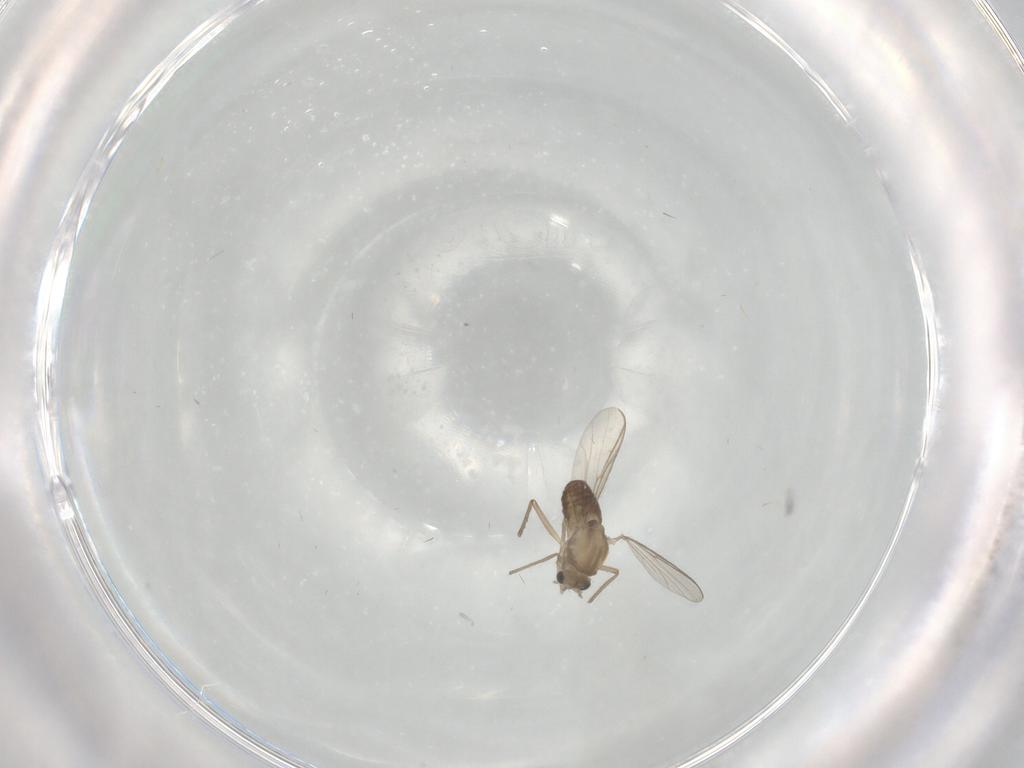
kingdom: Animalia
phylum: Arthropoda
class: Insecta
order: Diptera
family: Chironomidae
